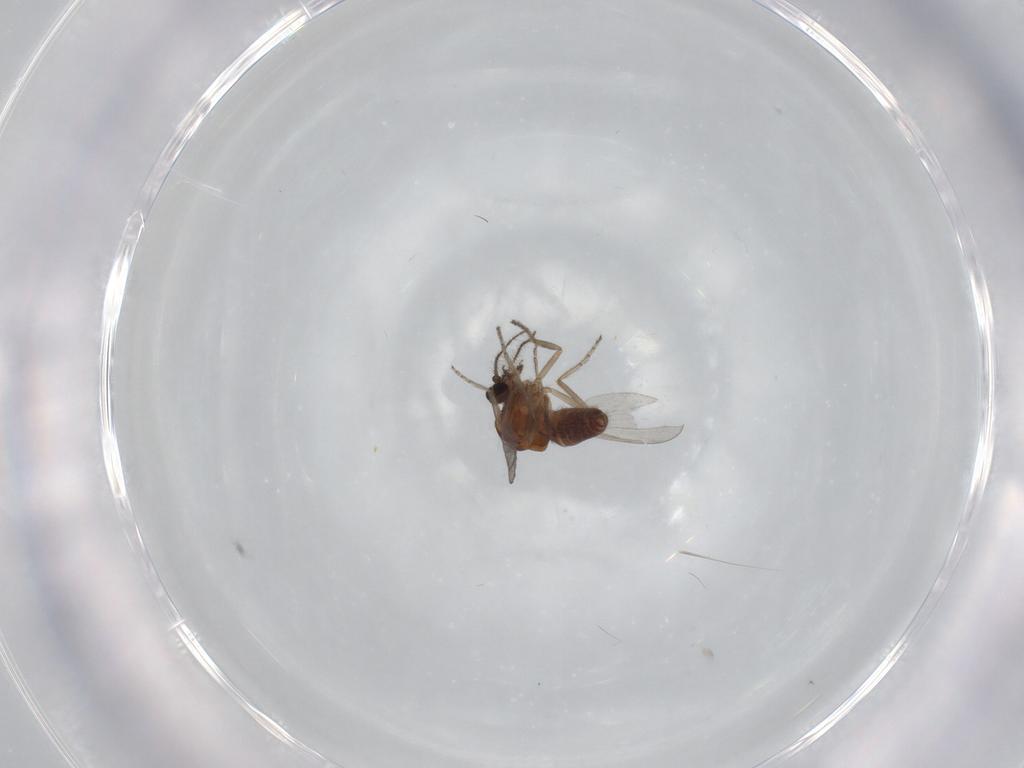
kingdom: Animalia
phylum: Arthropoda
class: Insecta
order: Diptera
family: Ceratopogonidae
